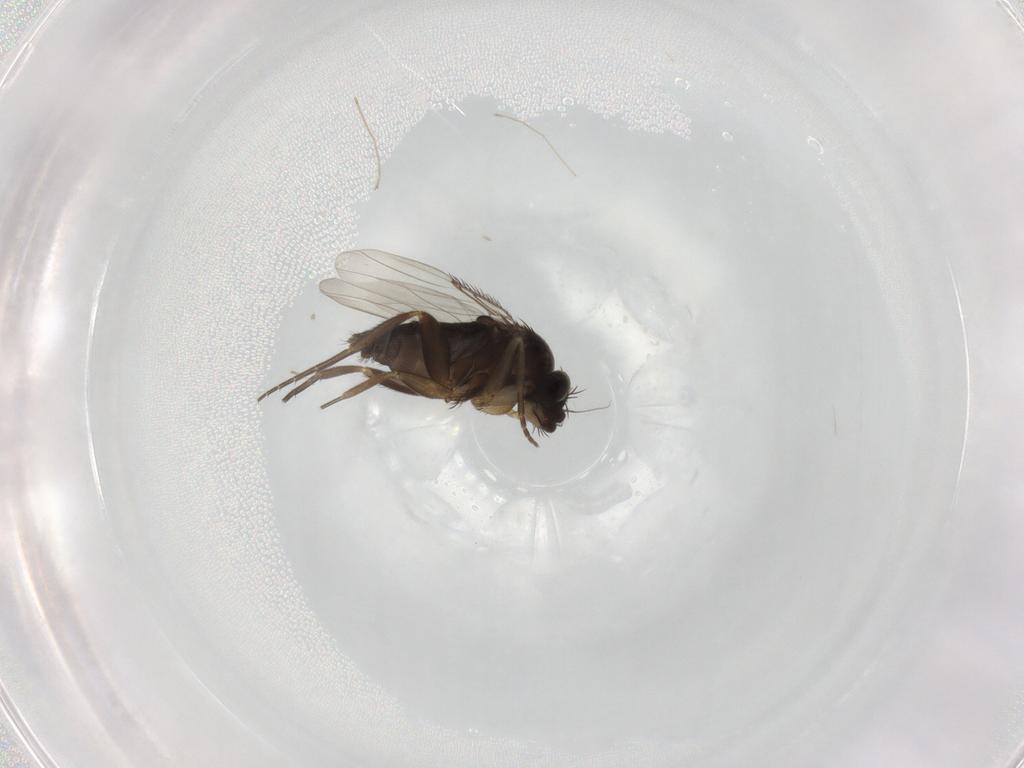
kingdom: Animalia
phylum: Arthropoda
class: Insecta
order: Diptera
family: Phoridae
